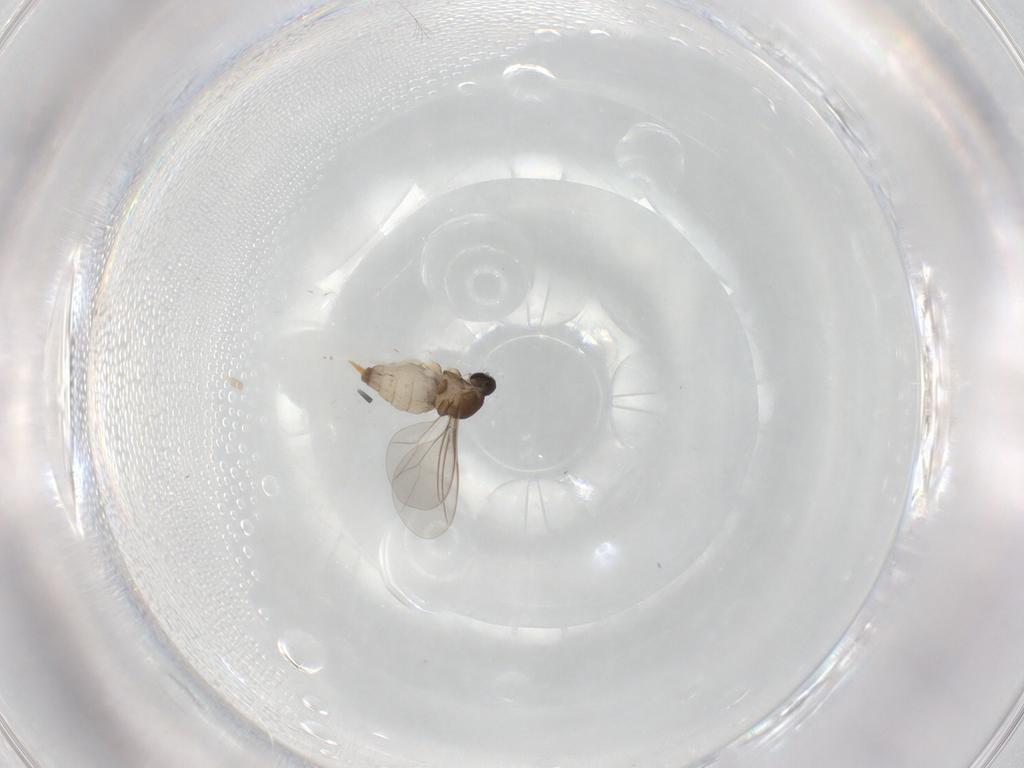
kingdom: Animalia
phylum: Arthropoda
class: Insecta
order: Diptera
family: Cecidomyiidae
